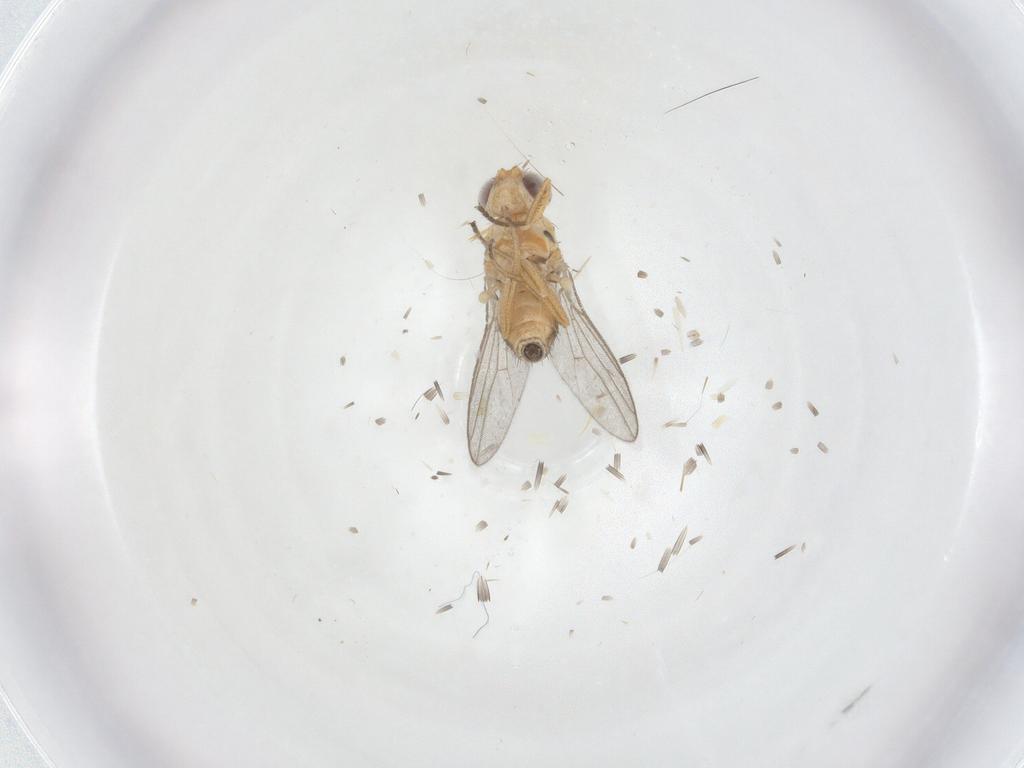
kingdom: Animalia
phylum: Arthropoda
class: Insecta
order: Diptera
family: Chloropidae
